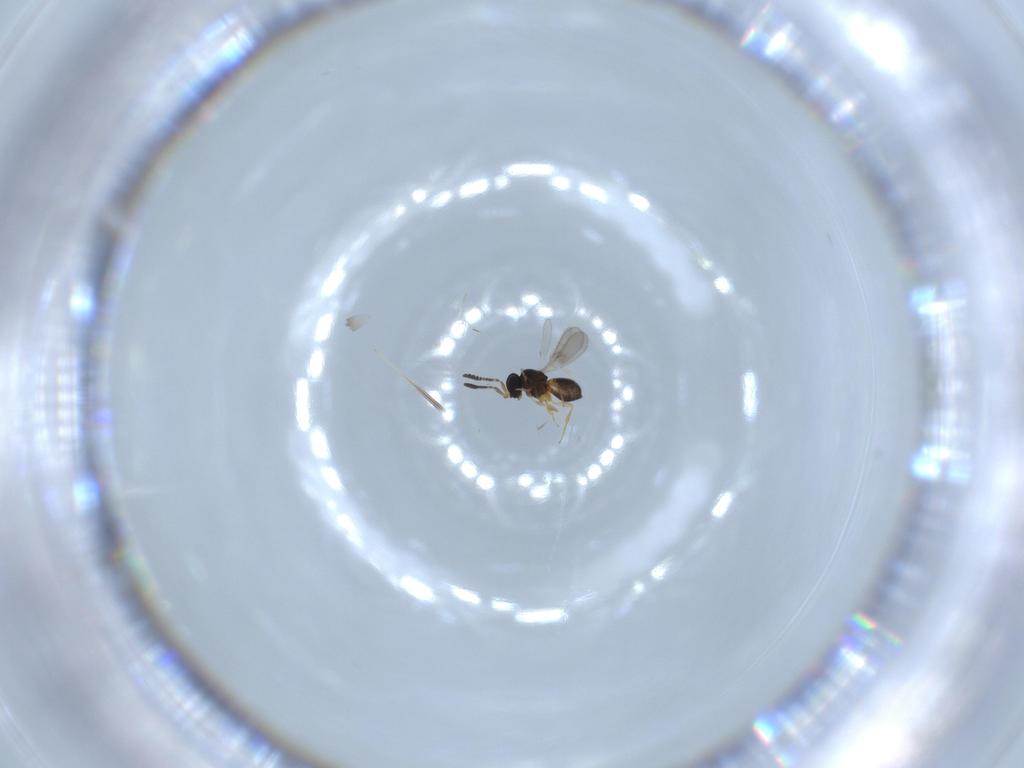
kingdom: Animalia
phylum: Arthropoda
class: Insecta
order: Hymenoptera
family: Scelionidae
